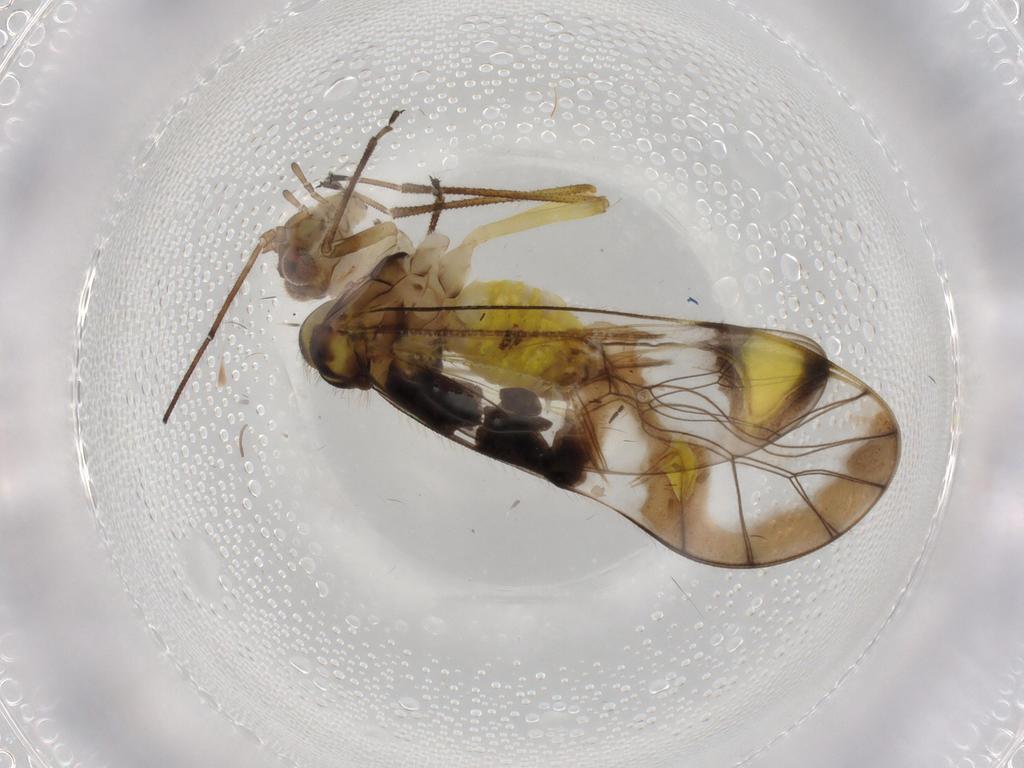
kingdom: Animalia
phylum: Arthropoda
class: Insecta
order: Psocodea
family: Amphipsocidae
